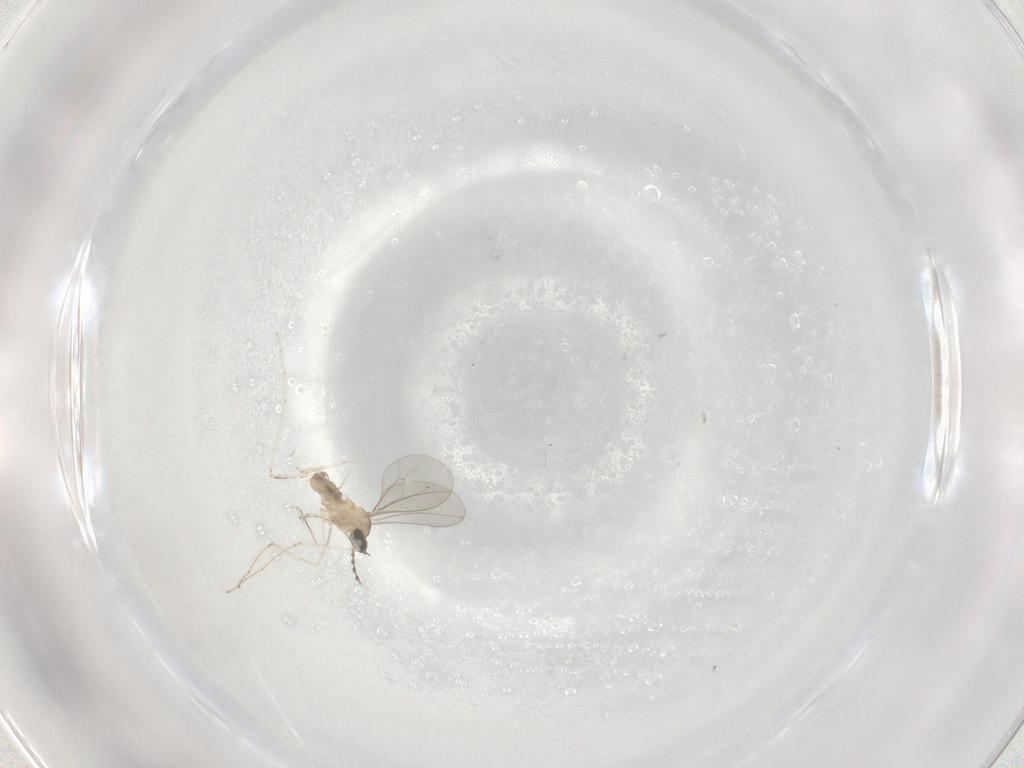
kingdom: Animalia
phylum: Arthropoda
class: Insecta
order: Diptera
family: Cecidomyiidae
